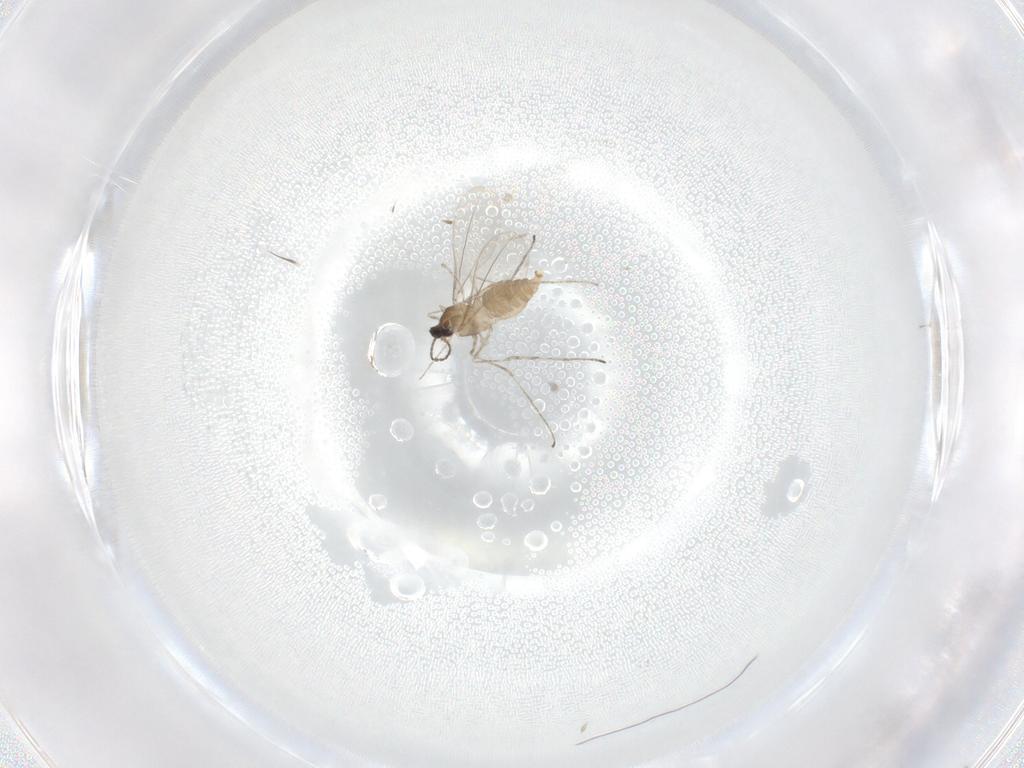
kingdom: Animalia
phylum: Arthropoda
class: Insecta
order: Diptera
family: Cecidomyiidae
